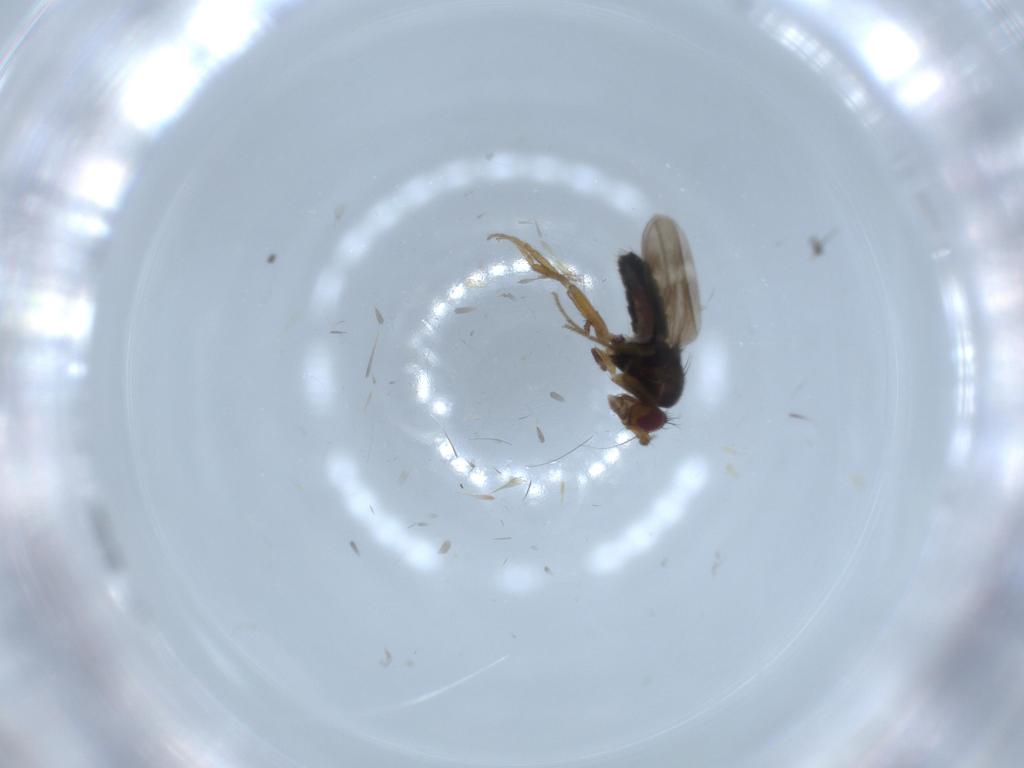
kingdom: Animalia
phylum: Arthropoda
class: Insecta
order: Diptera
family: Sphaeroceridae
